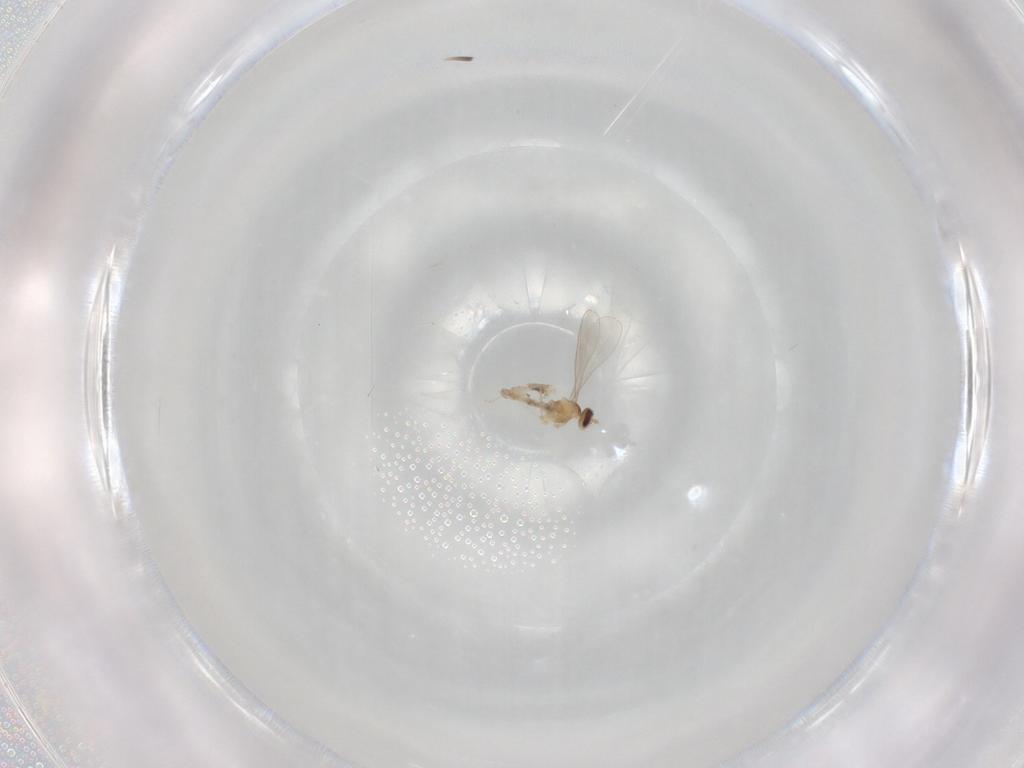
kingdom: Animalia
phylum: Arthropoda
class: Insecta
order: Diptera
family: Cecidomyiidae
